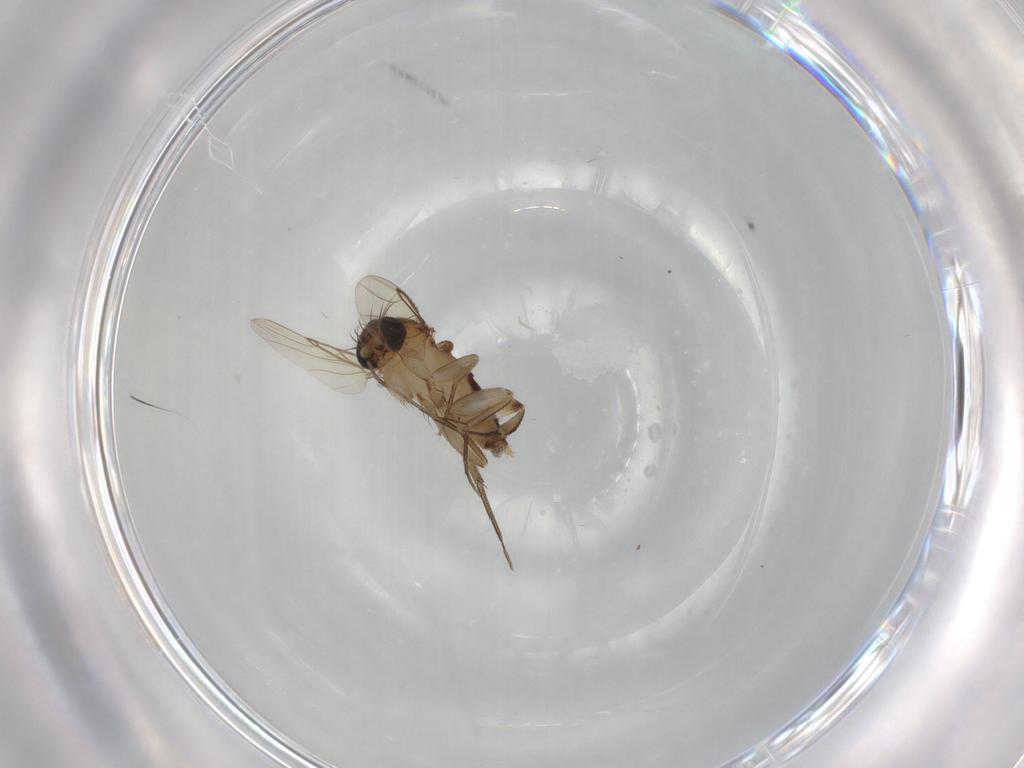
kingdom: Animalia
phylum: Arthropoda
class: Insecta
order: Diptera
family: Phoridae
